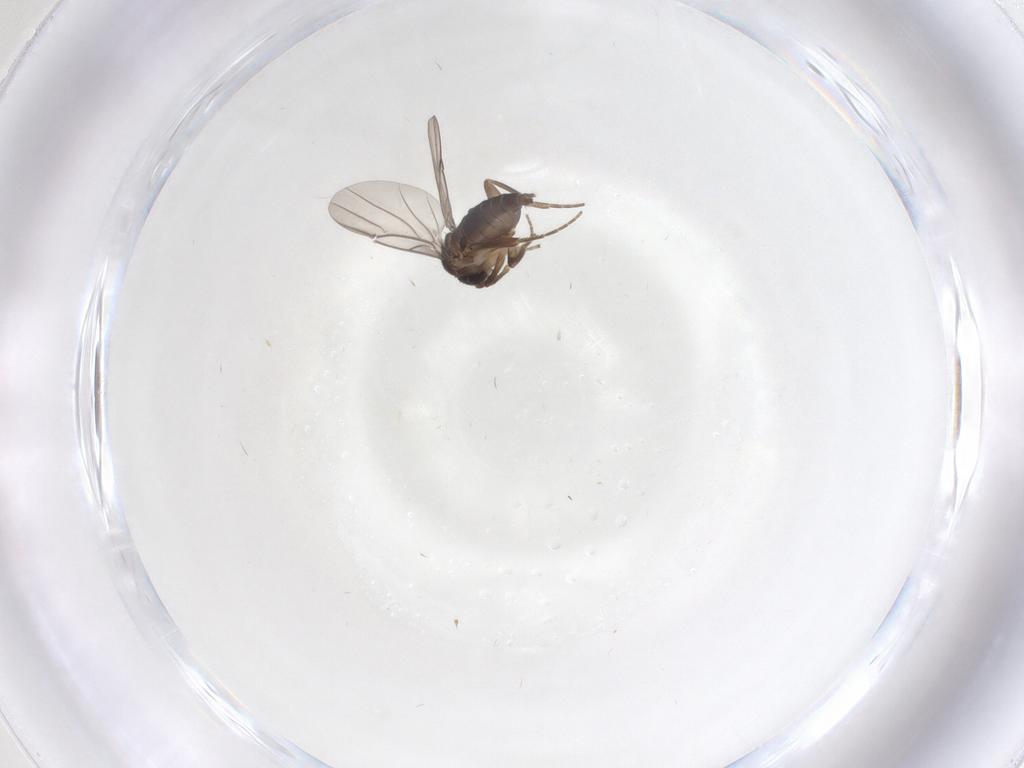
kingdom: Animalia
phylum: Arthropoda
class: Insecta
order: Diptera
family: Phoridae
